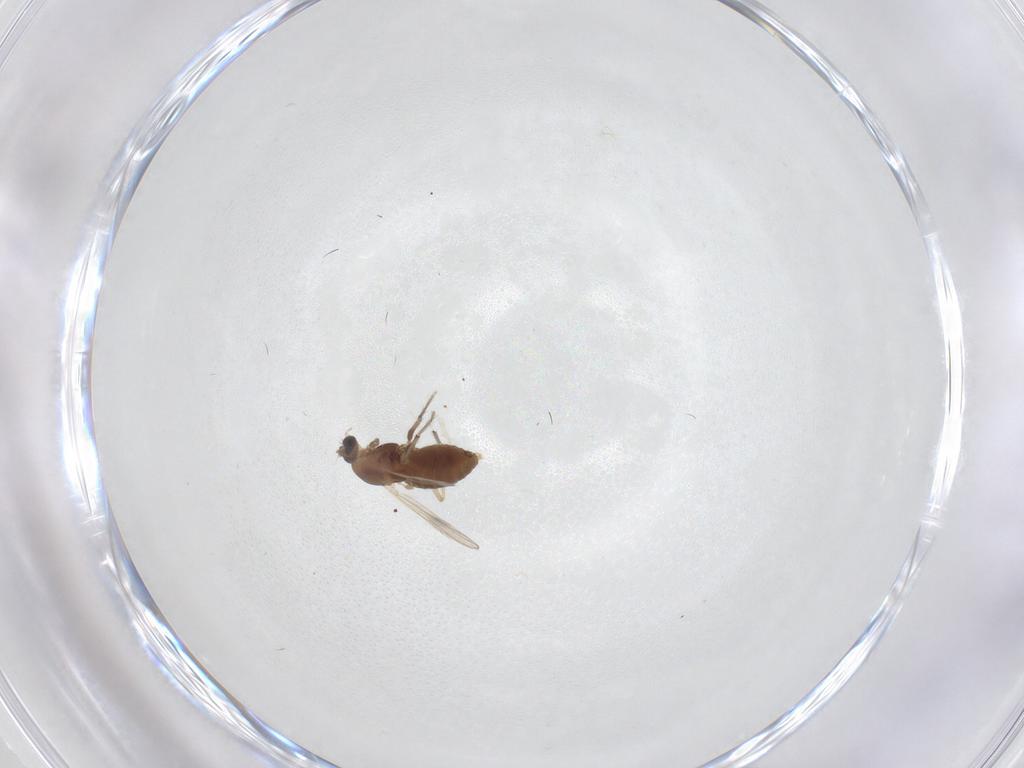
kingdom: Animalia
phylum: Arthropoda
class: Insecta
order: Diptera
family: Chironomidae
